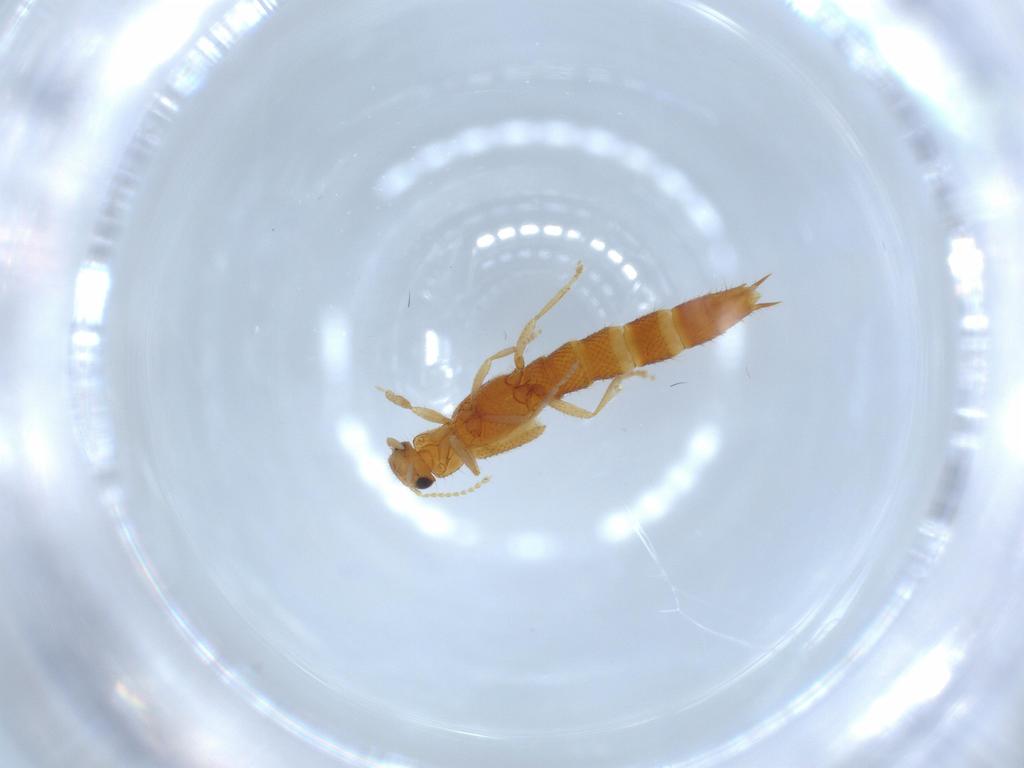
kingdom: Animalia
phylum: Arthropoda
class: Insecta
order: Coleoptera
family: Staphylinidae
